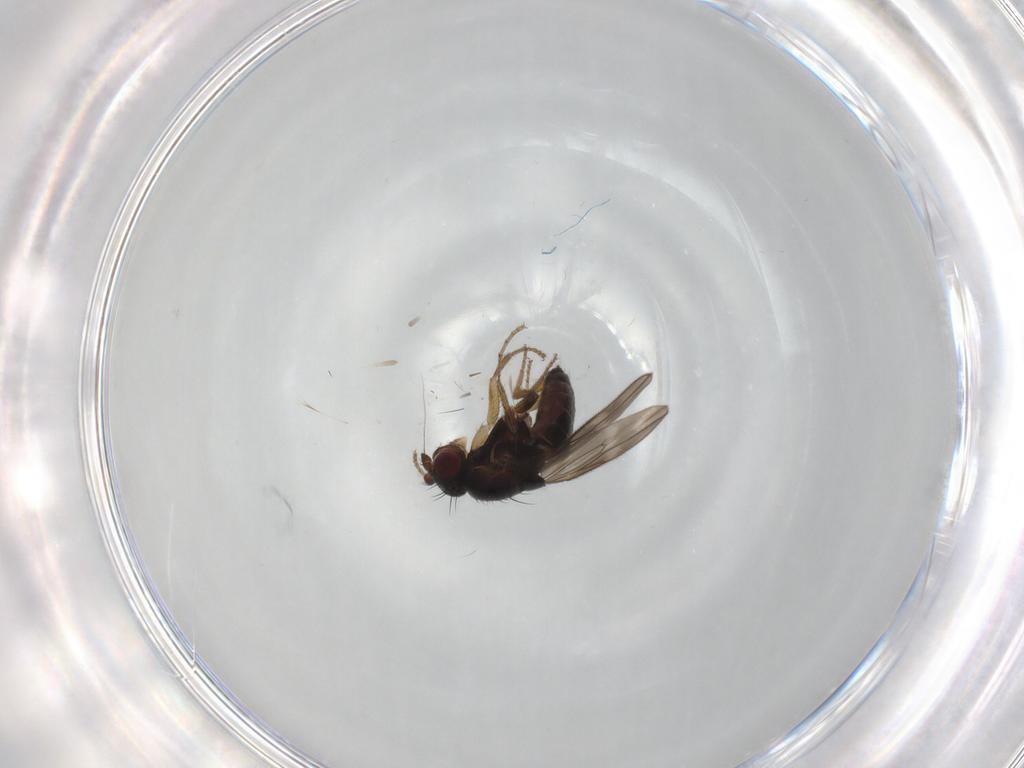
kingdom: Animalia
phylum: Arthropoda
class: Insecta
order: Diptera
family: Sphaeroceridae
